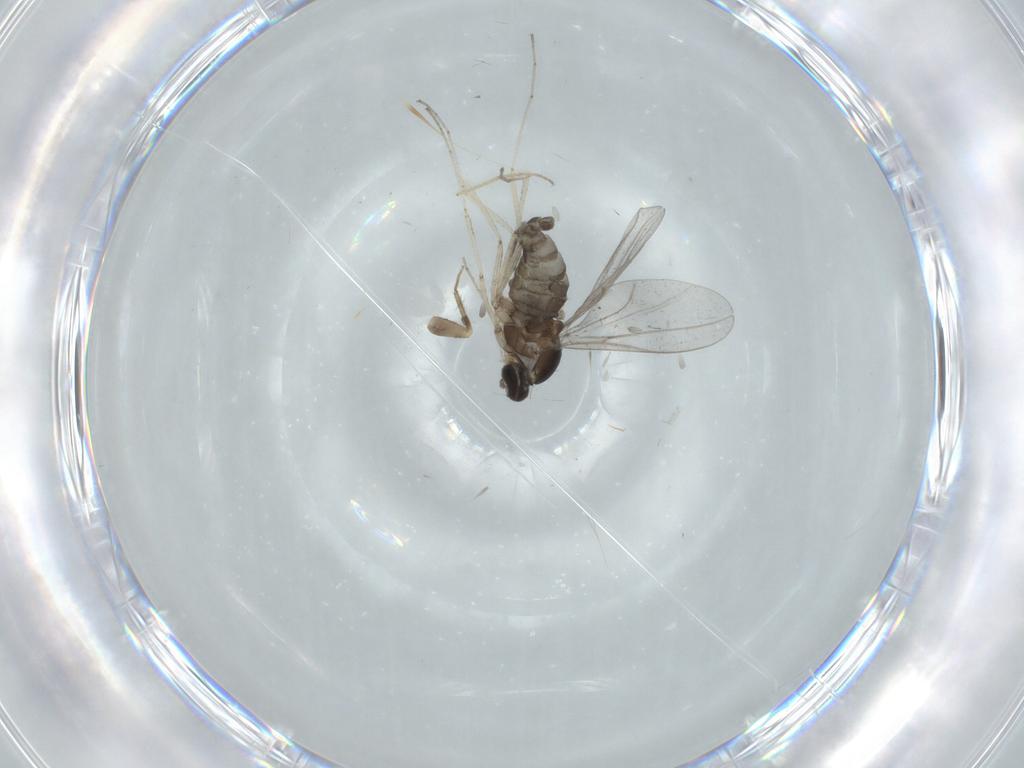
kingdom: Animalia
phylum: Arthropoda
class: Insecta
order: Diptera
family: Cecidomyiidae
